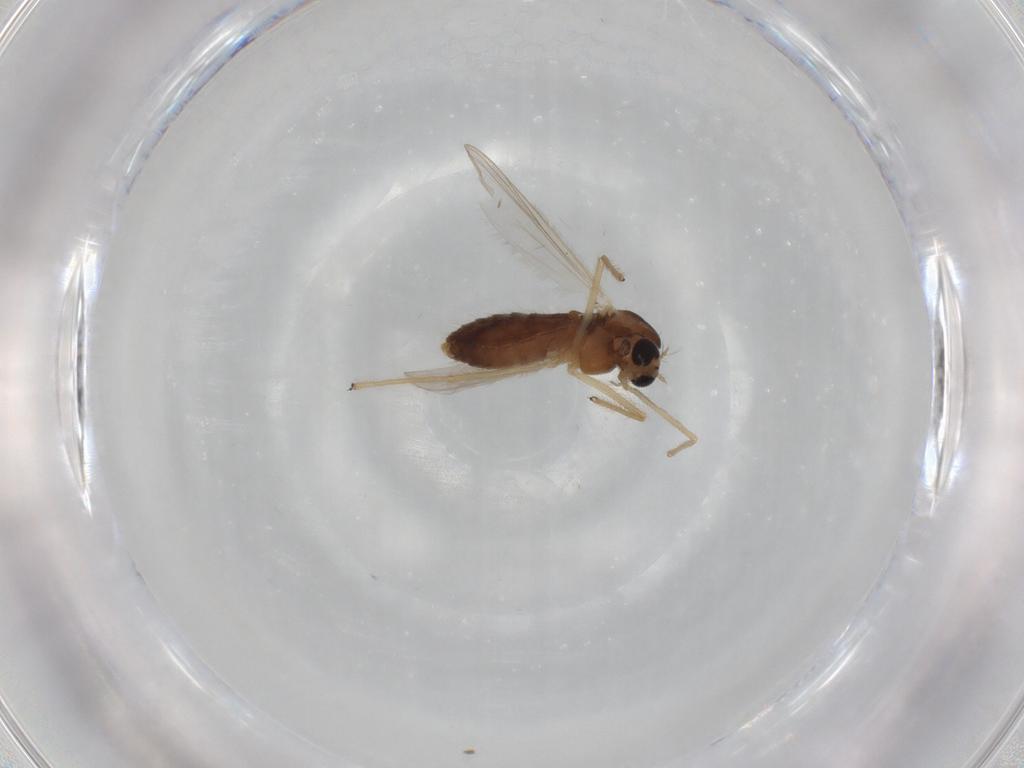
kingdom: Animalia
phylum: Arthropoda
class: Insecta
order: Diptera
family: Chironomidae
